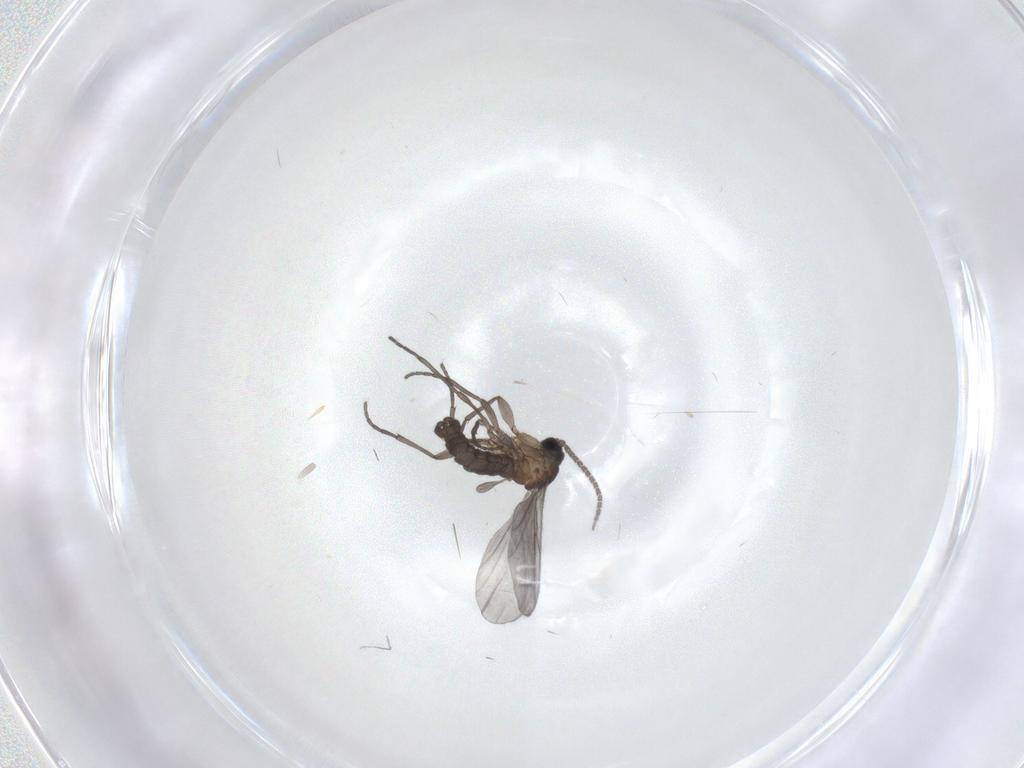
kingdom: Animalia
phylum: Arthropoda
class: Insecta
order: Diptera
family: Sciaridae
